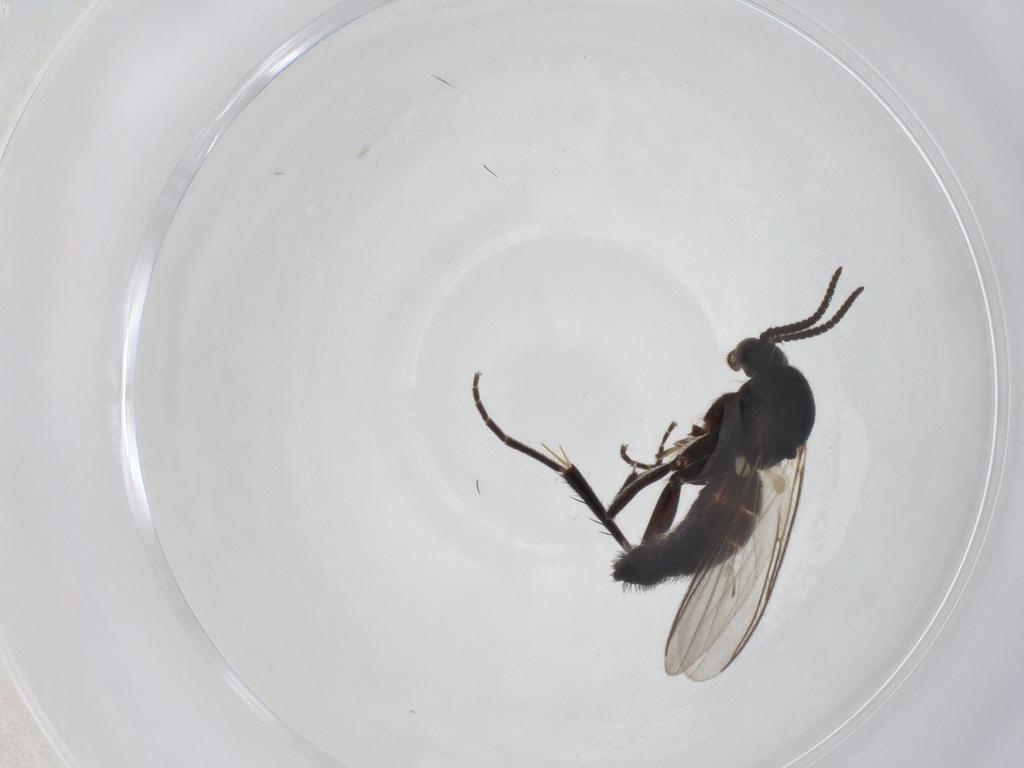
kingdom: Animalia
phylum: Arthropoda
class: Insecta
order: Diptera
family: Mycetophilidae
